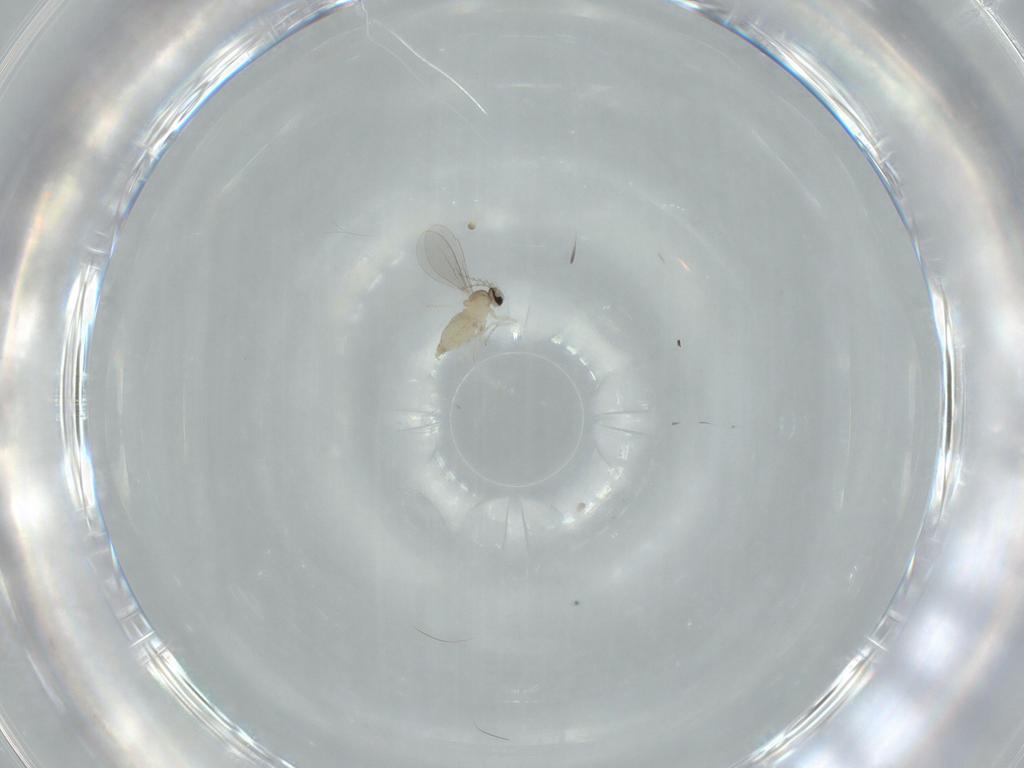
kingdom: Animalia
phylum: Arthropoda
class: Insecta
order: Diptera
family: Cecidomyiidae
